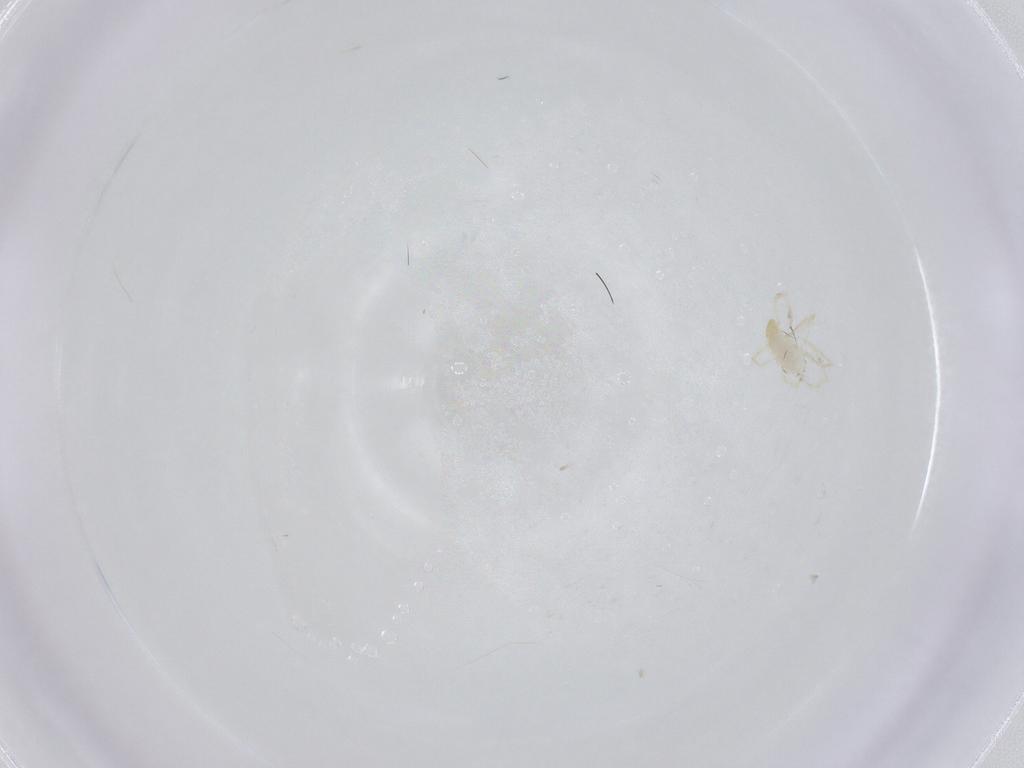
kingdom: Animalia
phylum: Arthropoda
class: Arachnida
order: Trombidiformes
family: Erythraeidae
